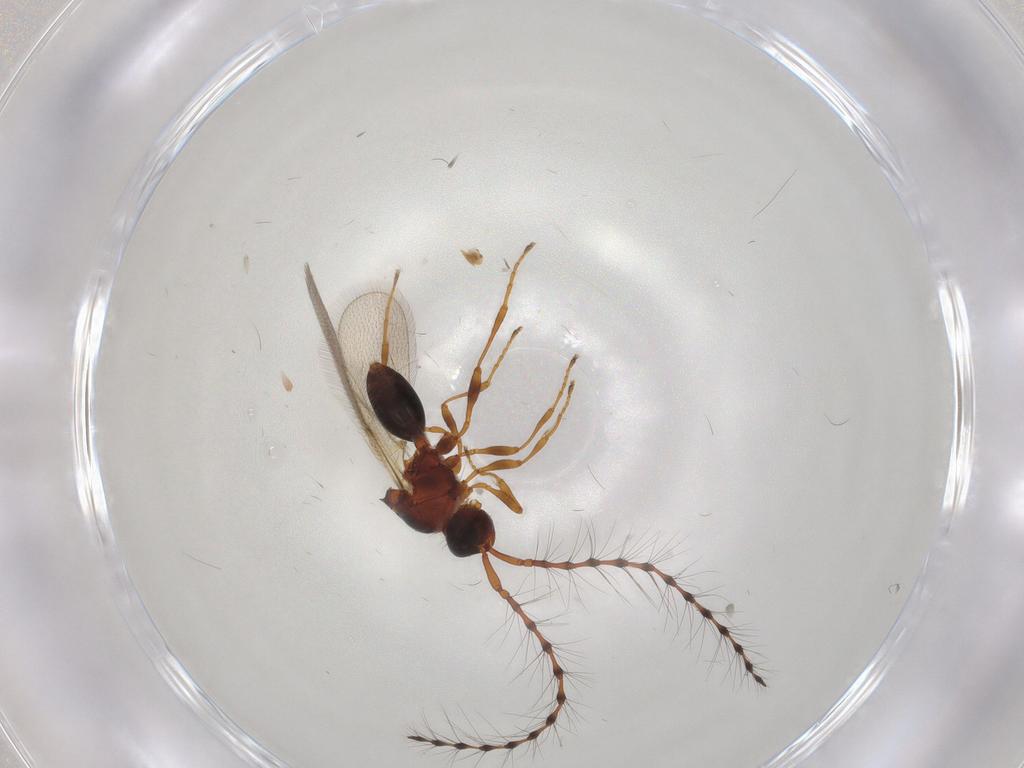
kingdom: Animalia
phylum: Arthropoda
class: Insecta
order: Hymenoptera
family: Diapriidae
